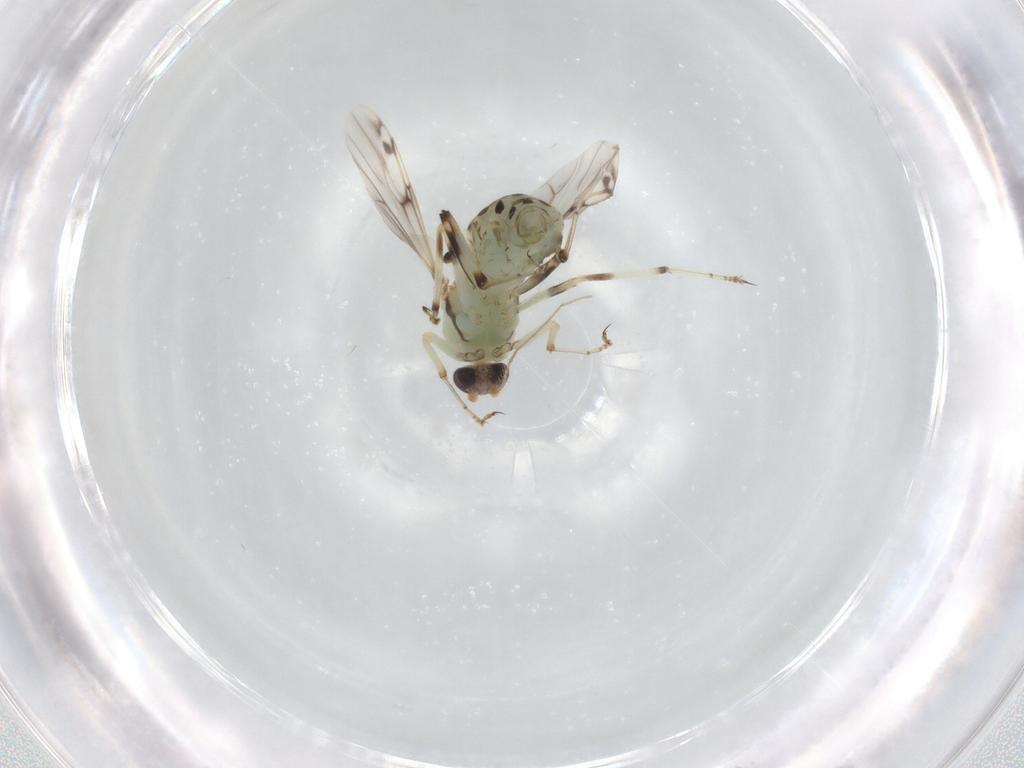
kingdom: Animalia
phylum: Arthropoda
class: Insecta
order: Diptera
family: Ceratopogonidae
